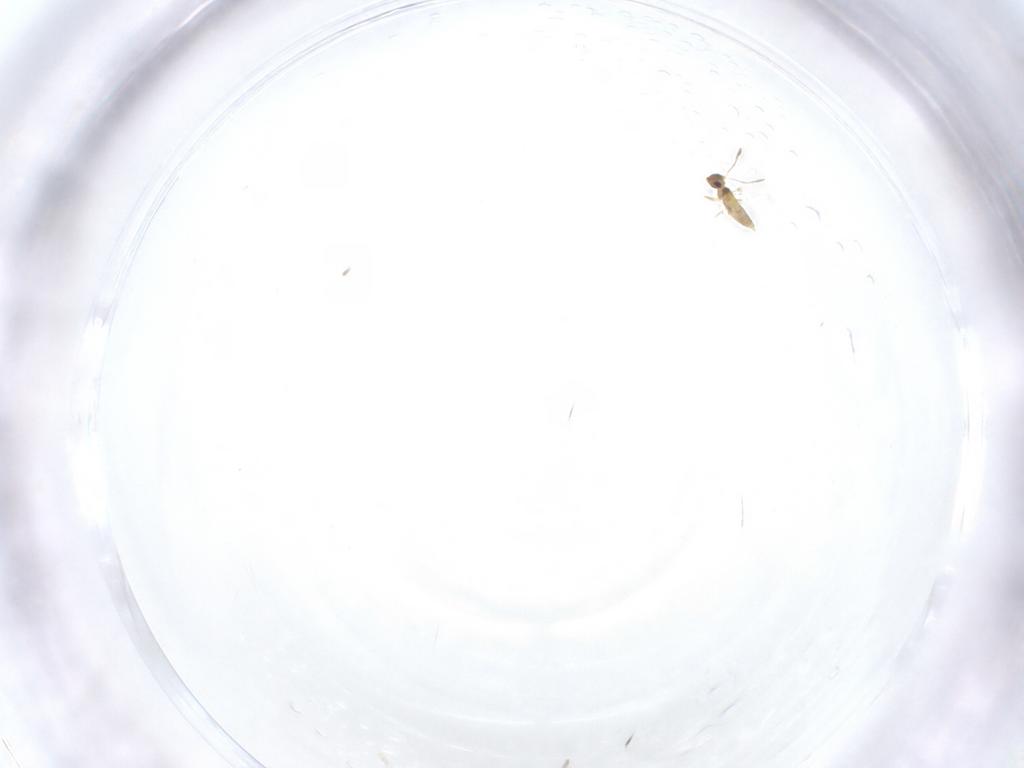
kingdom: Animalia
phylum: Arthropoda
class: Insecta
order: Hymenoptera
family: Mymaridae
